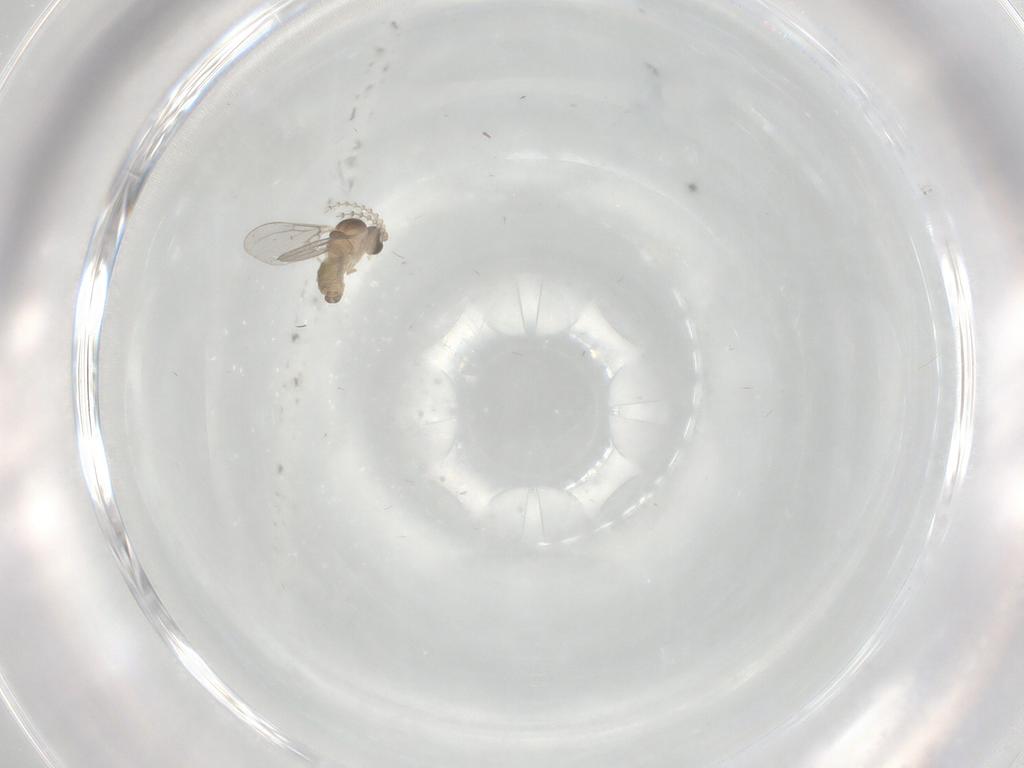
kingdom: Animalia
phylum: Arthropoda
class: Insecta
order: Diptera
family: Cecidomyiidae
